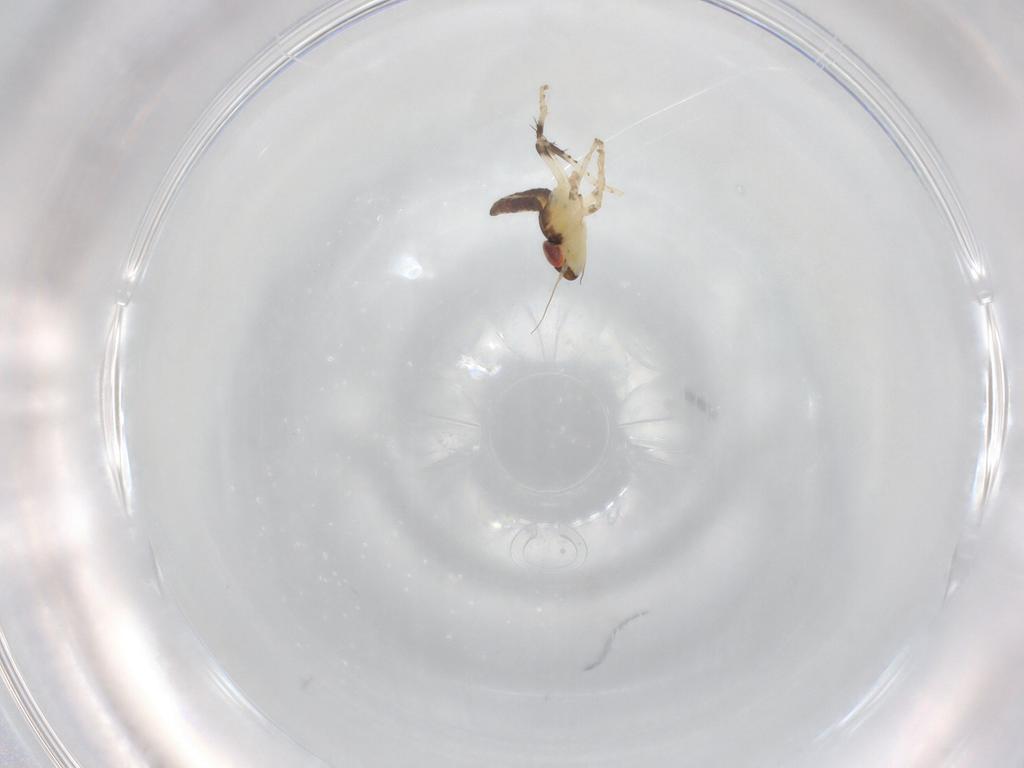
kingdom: Animalia
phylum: Arthropoda
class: Insecta
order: Hemiptera
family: Cicadellidae
